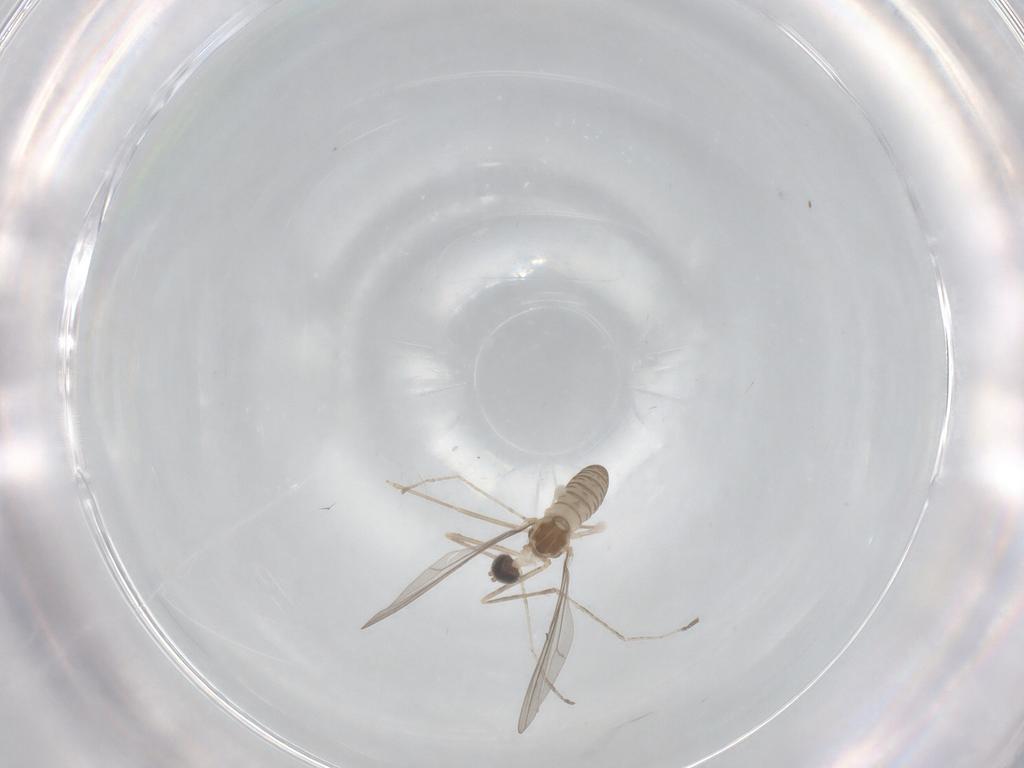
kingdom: Animalia
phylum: Arthropoda
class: Insecta
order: Diptera
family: Cecidomyiidae
